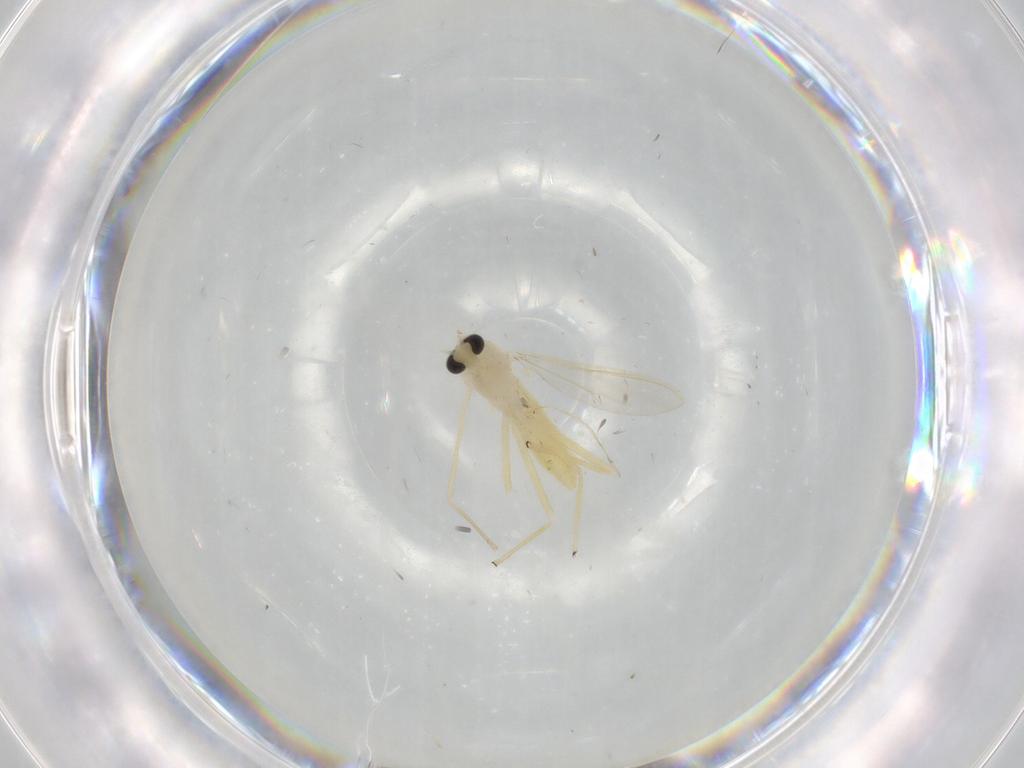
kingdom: Animalia
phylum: Arthropoda
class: Insecta
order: Diptera
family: Chironomidae
